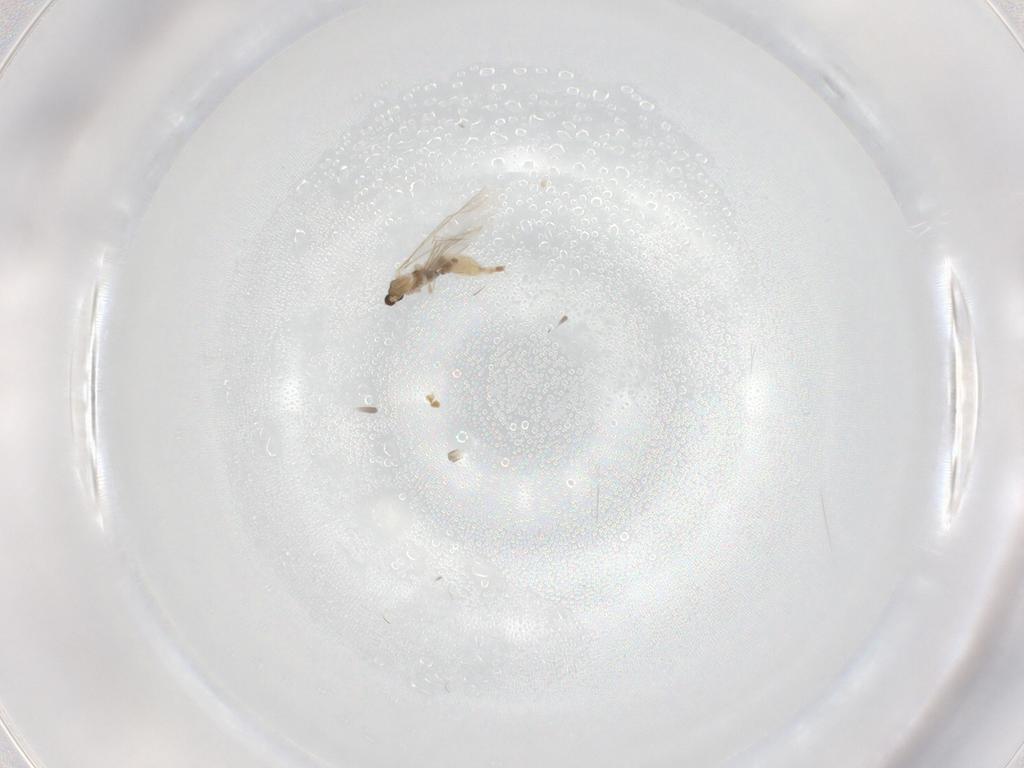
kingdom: Animalia
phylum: Arthropoda
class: Insecta
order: Diptera
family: Cecidomyiidae
